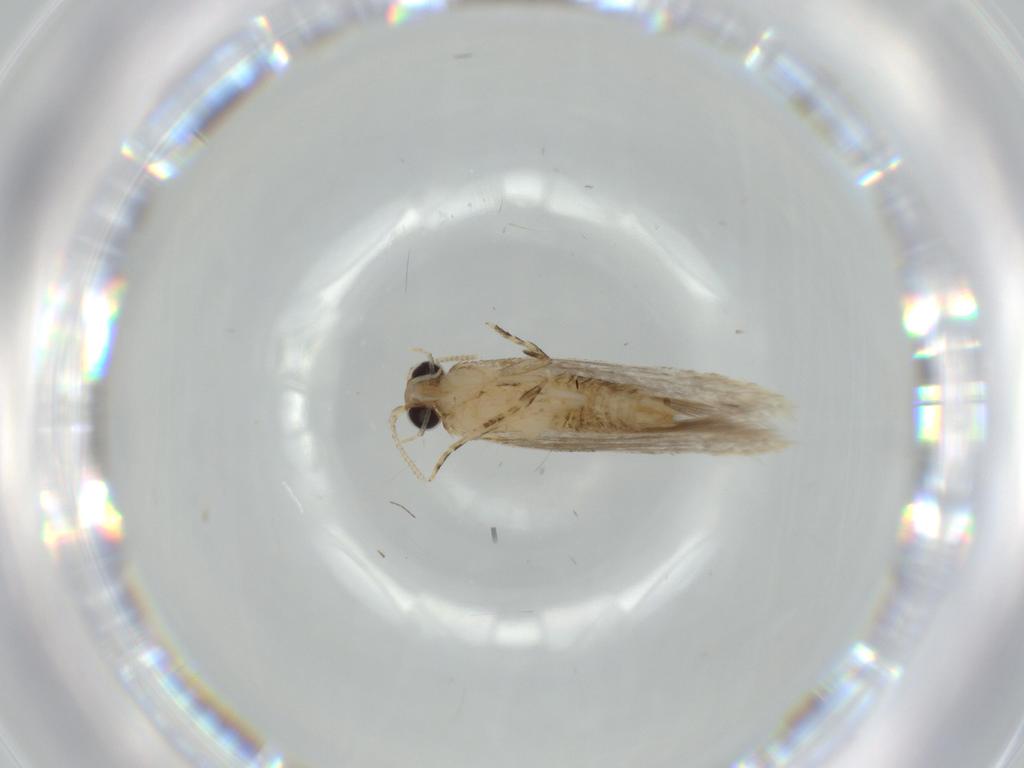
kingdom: Animalia
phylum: Arthropoda
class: Insecta
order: Lepidoptera
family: Tineidae
